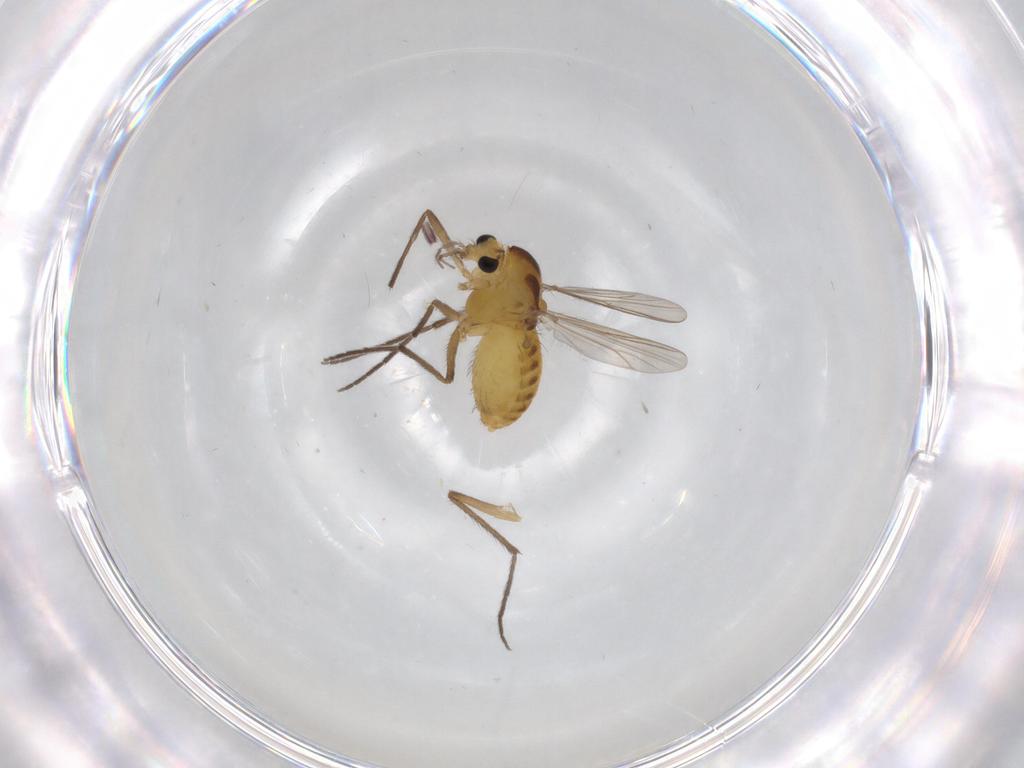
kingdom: Animalia
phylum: Arthropoda
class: Insecta
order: Diptera
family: Chironomidae
